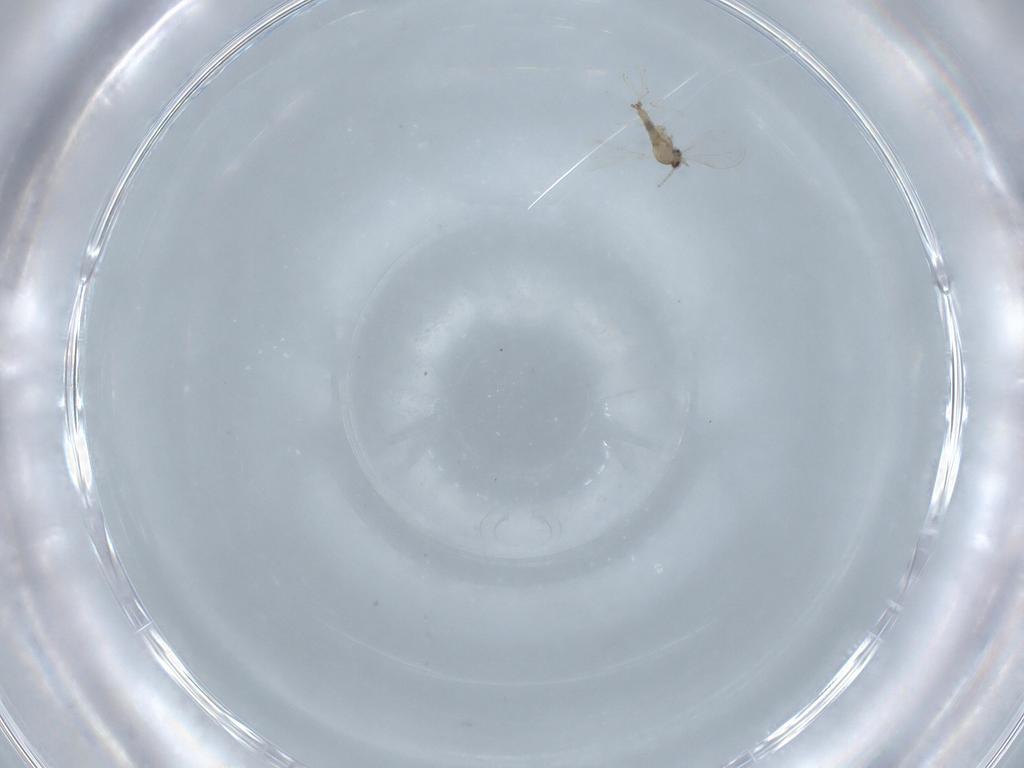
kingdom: Animalia
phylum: Arthropoda
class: Insecta
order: Diptera
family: Cecidomyiidae
